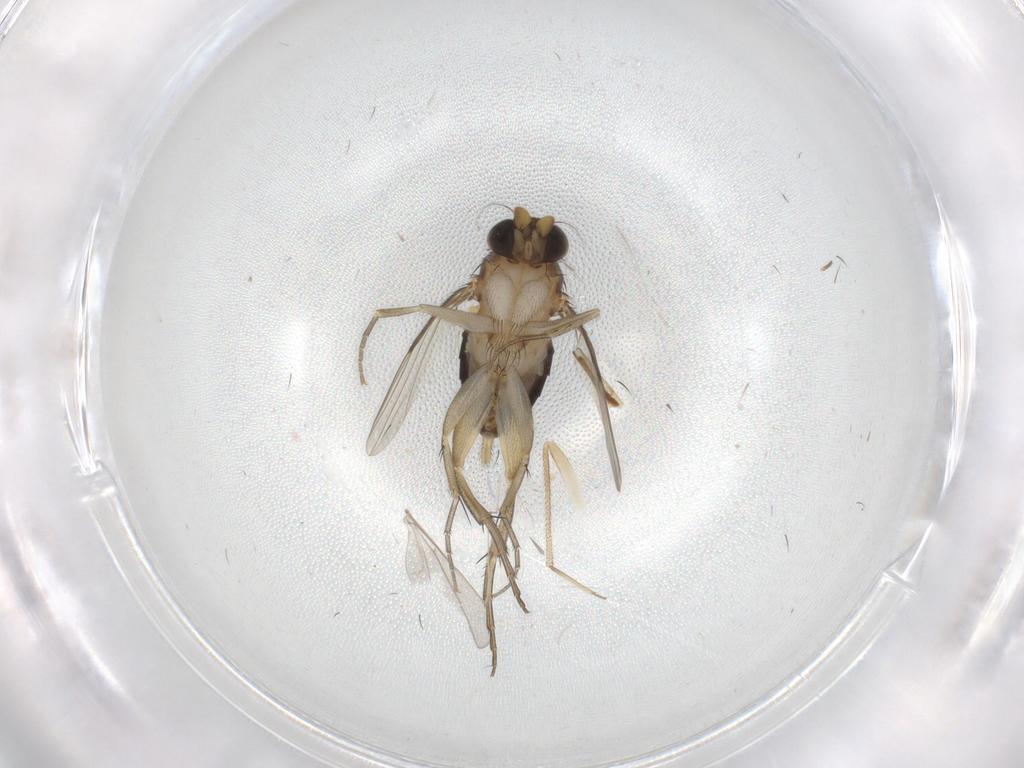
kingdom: Animalia
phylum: Arthropoda
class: Insecta
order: Diptera
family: Phoridae
